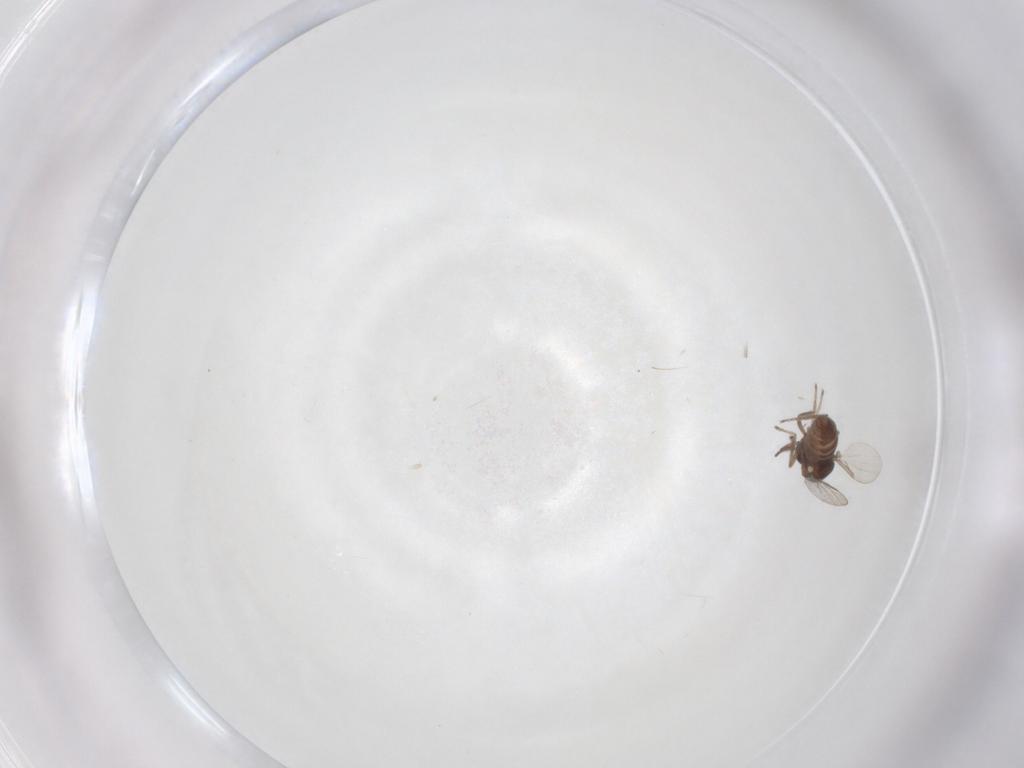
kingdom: Animalia
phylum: Arthropoda
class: Insecta
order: Diptera
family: Ceratopogonidae
